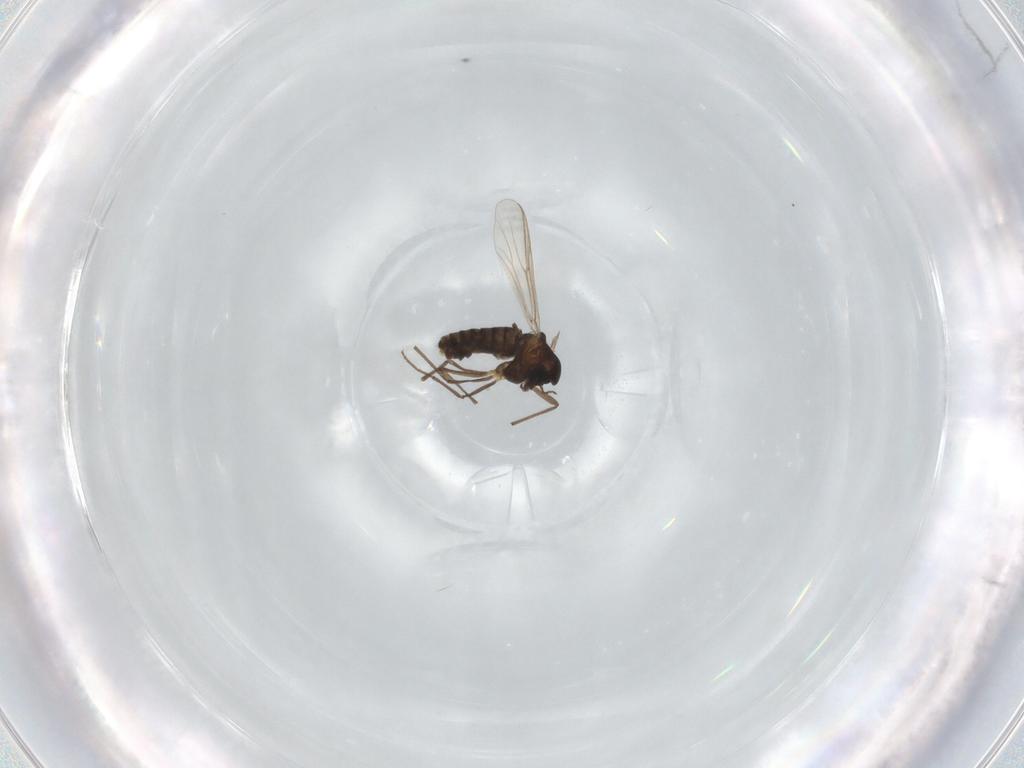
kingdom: Animalia
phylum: Arthropoda
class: Insecta
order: Diptera
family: Chironomidae
